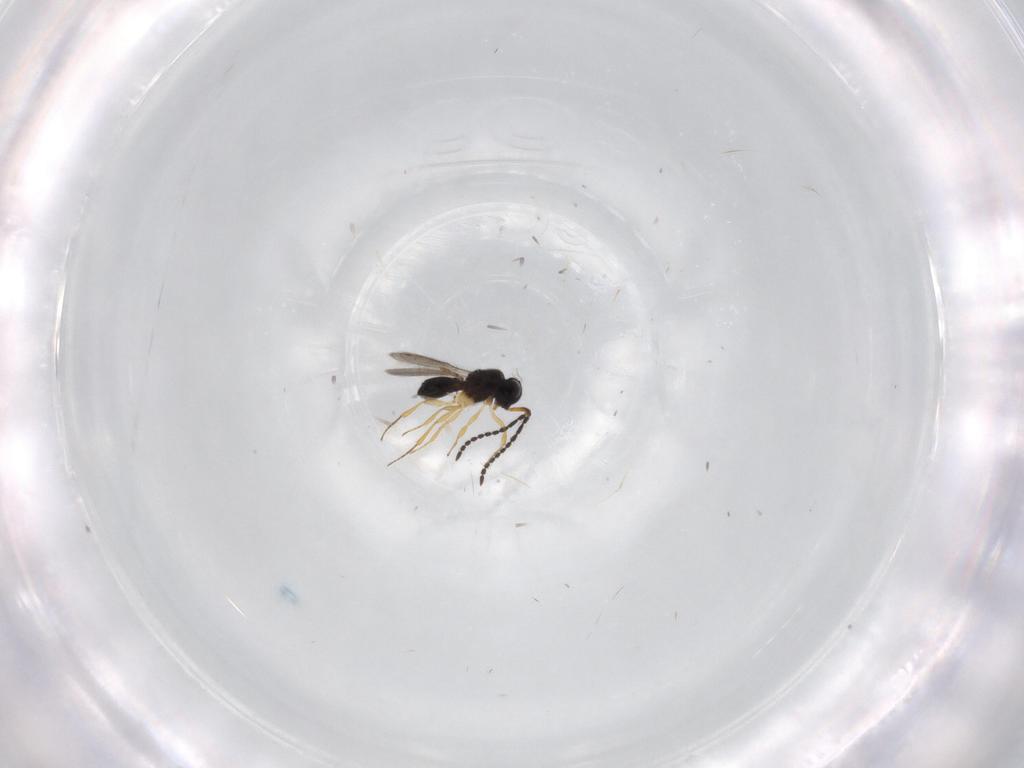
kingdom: Animalia
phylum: Arthropoda
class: Insecta
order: Hymenoptera
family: Scelionidae
